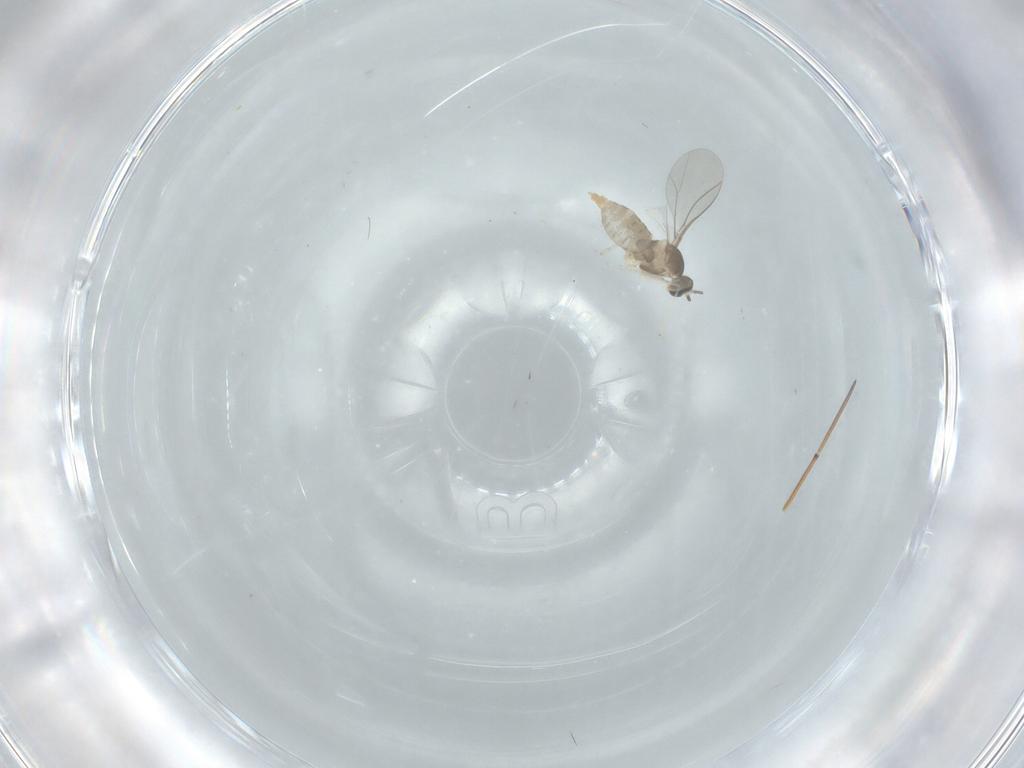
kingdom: Animalia
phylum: Arthropoda
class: Insecta
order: Diptera
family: Cecidomyiidae
